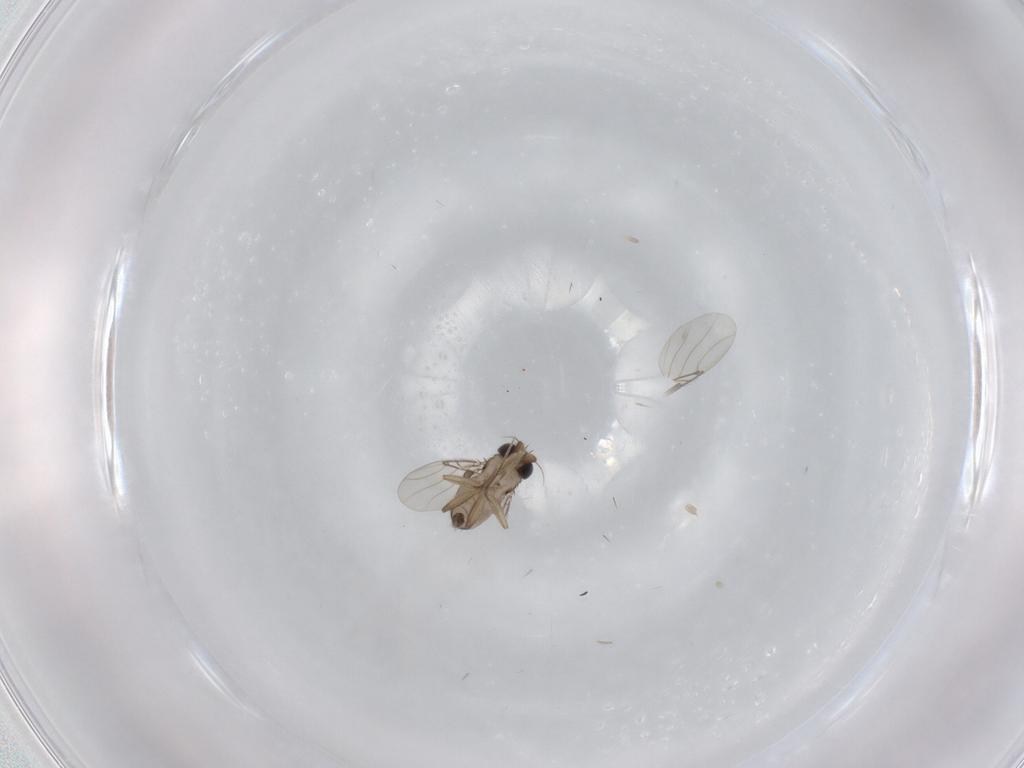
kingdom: Animalia
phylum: Arthropoda
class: Insecta
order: Diptera
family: Phoridae
